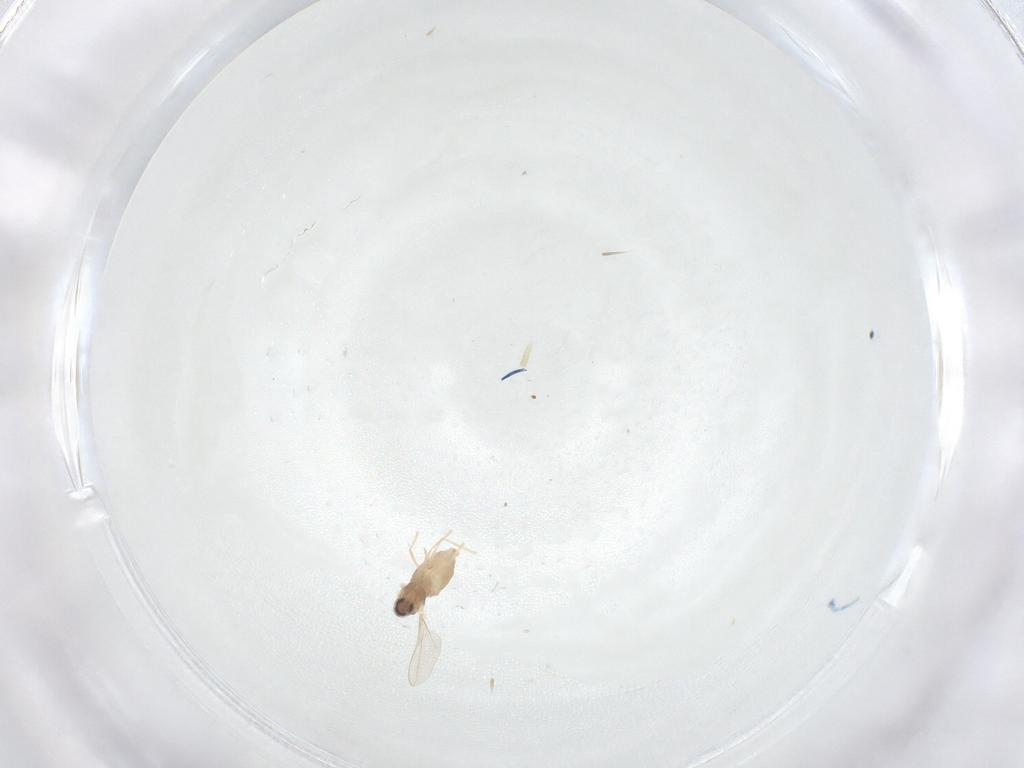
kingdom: Animalia
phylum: Arthropoda
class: Insecta
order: Diptera
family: Cecidomyiidae
